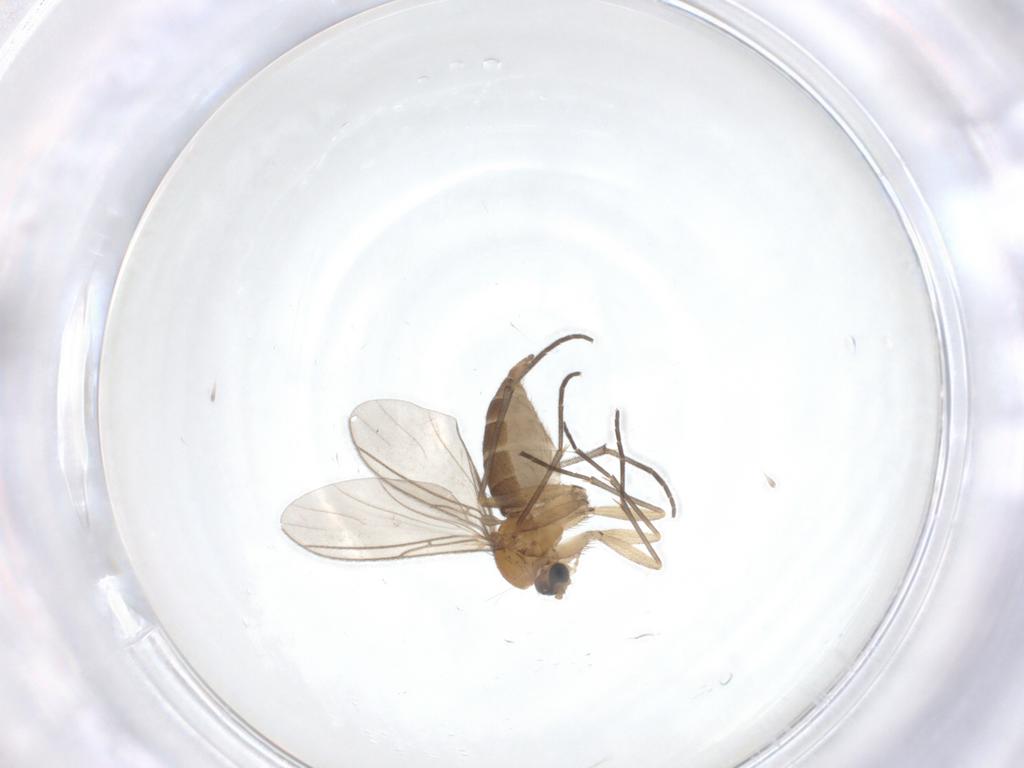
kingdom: Animalia
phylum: Arthropoda
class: Insecta
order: Diptera
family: Sciaridae
